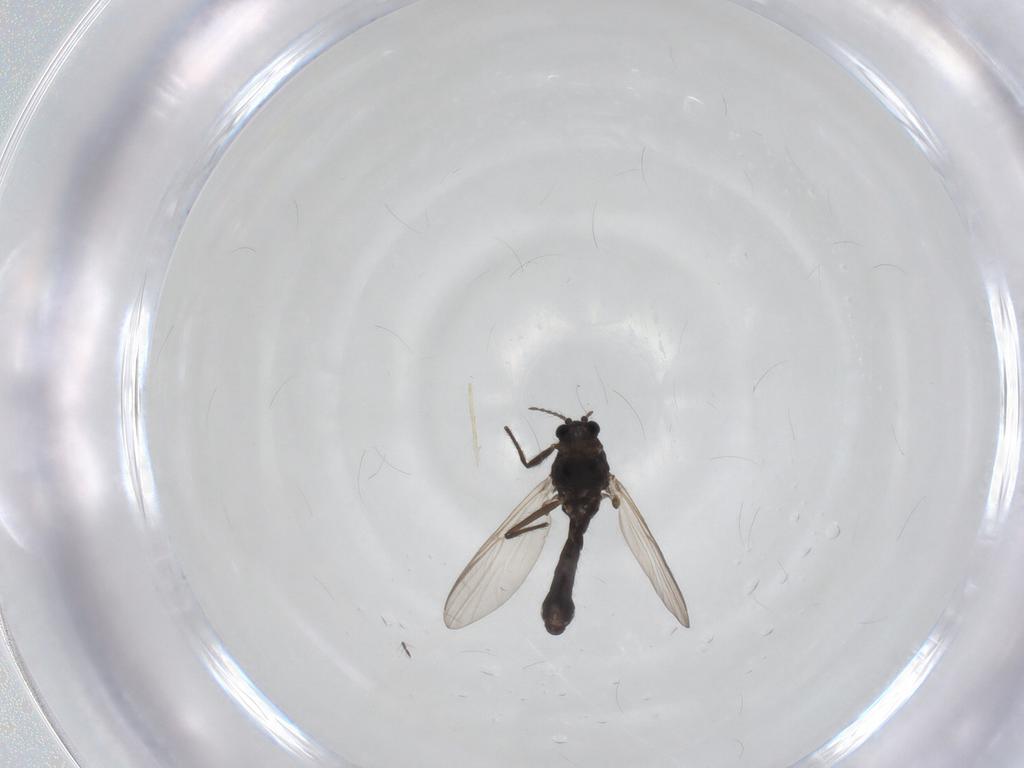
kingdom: Animalia
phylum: Arthropoda
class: Insecta
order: Diptera
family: Chironomidae
